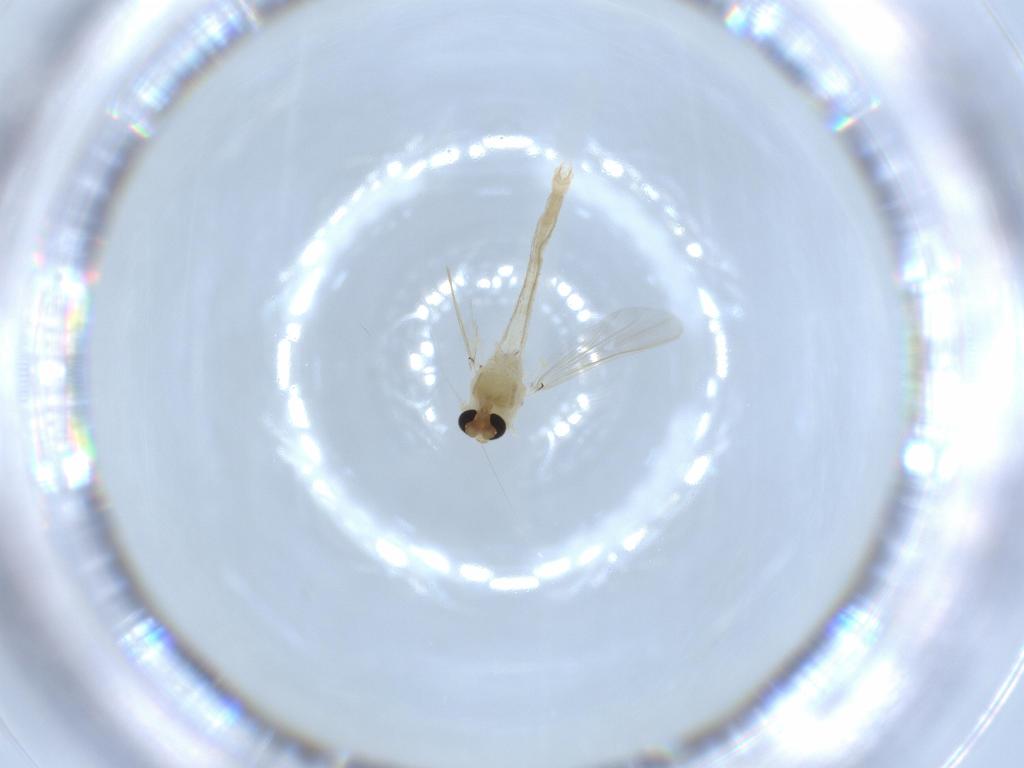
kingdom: Animalia
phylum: Arthropoda
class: Insecta
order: Diptera
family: Chironomidae
